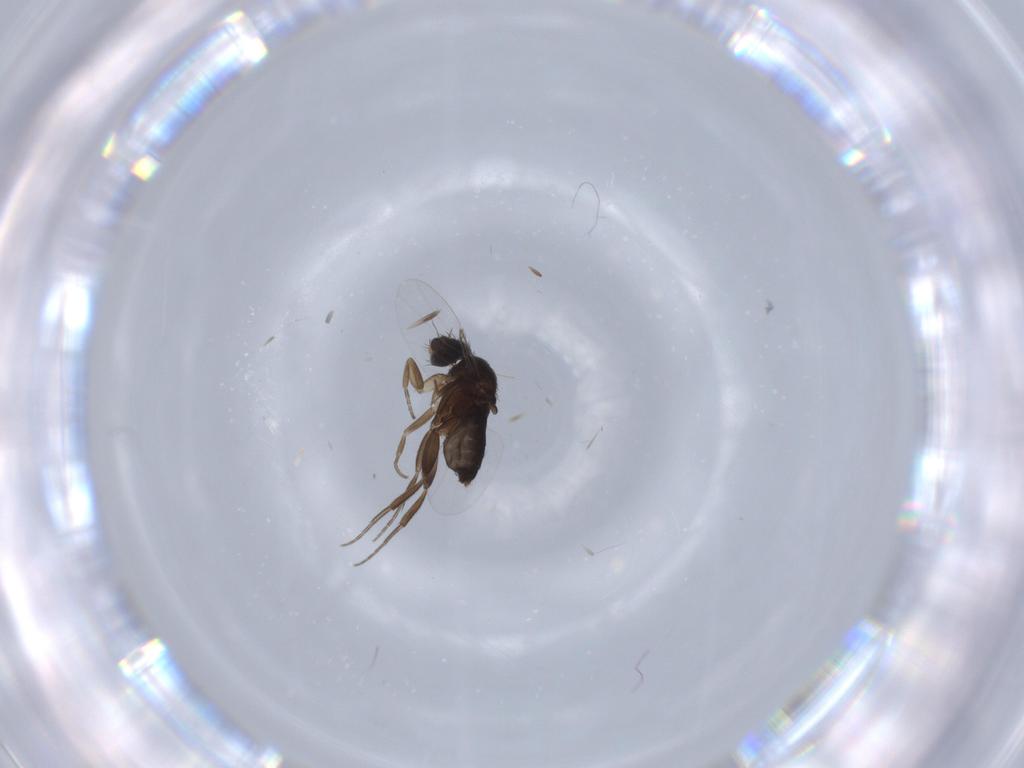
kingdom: Animalia
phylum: Arthropoda
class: Insecta
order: Diptera
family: Phoridae
